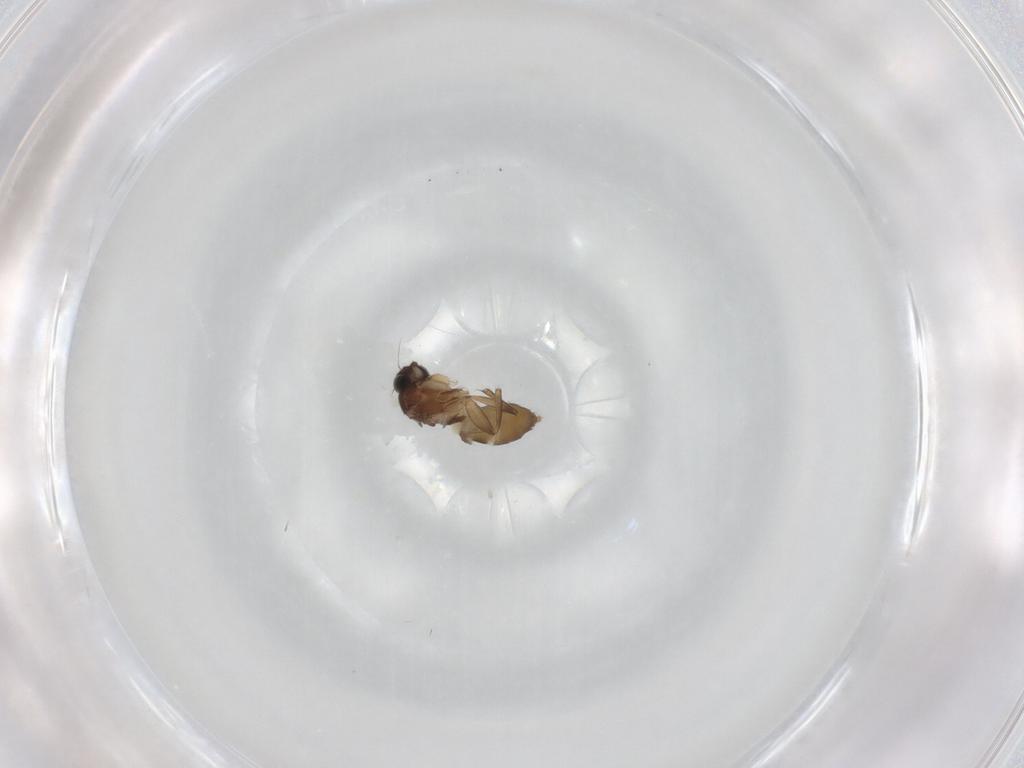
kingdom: Animalia
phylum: Arthropoda
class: Insecta
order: Diptera
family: Phoridae
